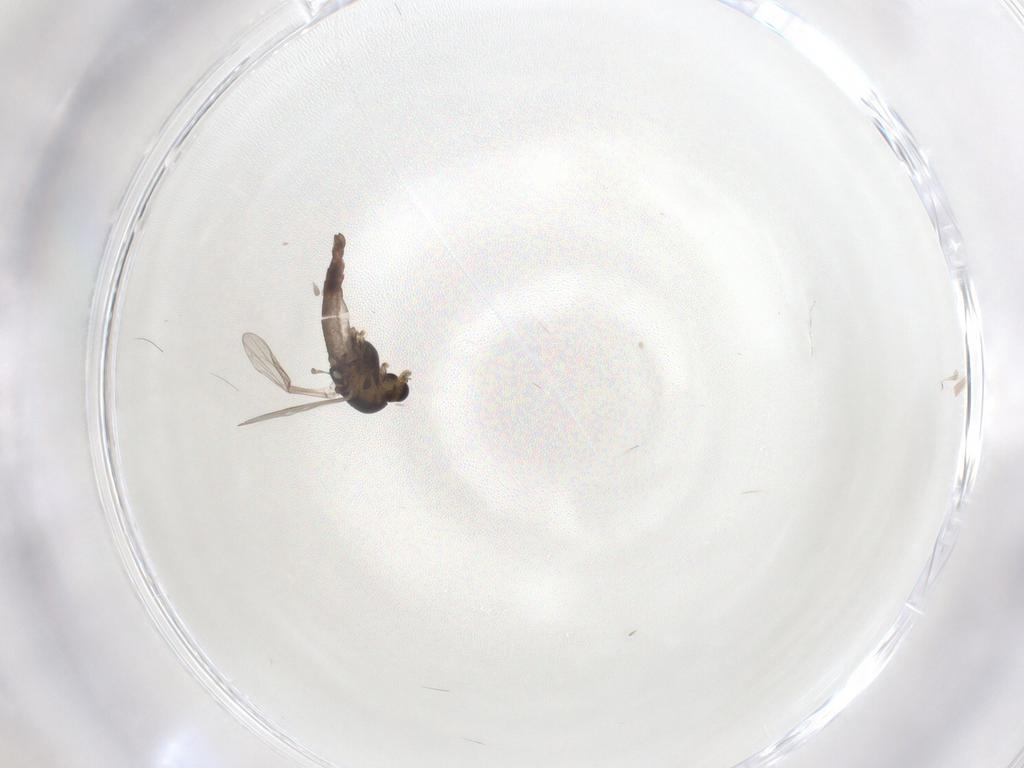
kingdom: Animalia
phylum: Arthropoda
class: Insecta
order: Diptera
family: Chironomidae
